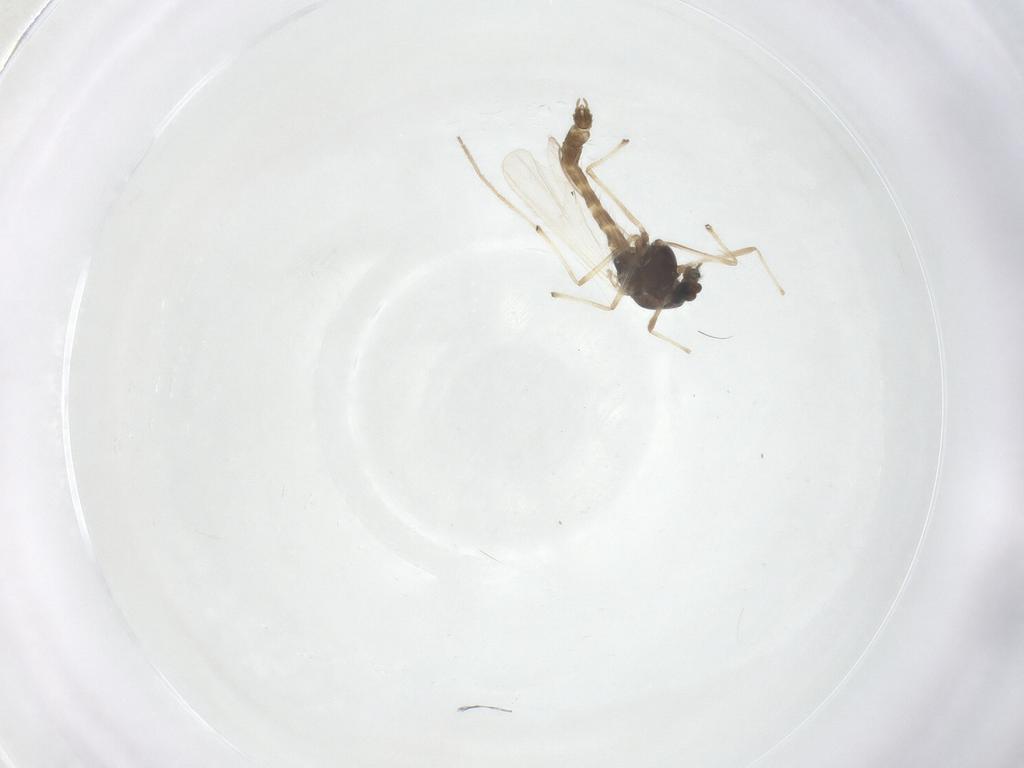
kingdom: Animalia
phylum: Arthropoda
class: Insecta
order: Diptera
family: Chironomidae
